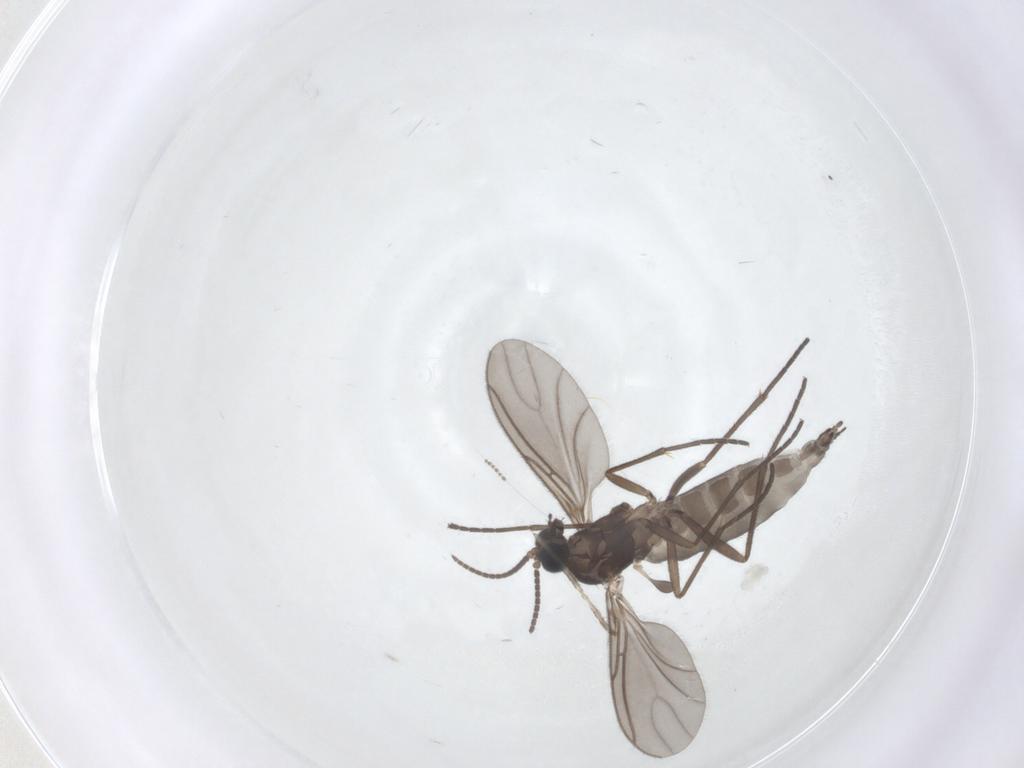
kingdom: Animalia
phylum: Arthropoda
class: Insecta
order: Diptera
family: Sciaridae
